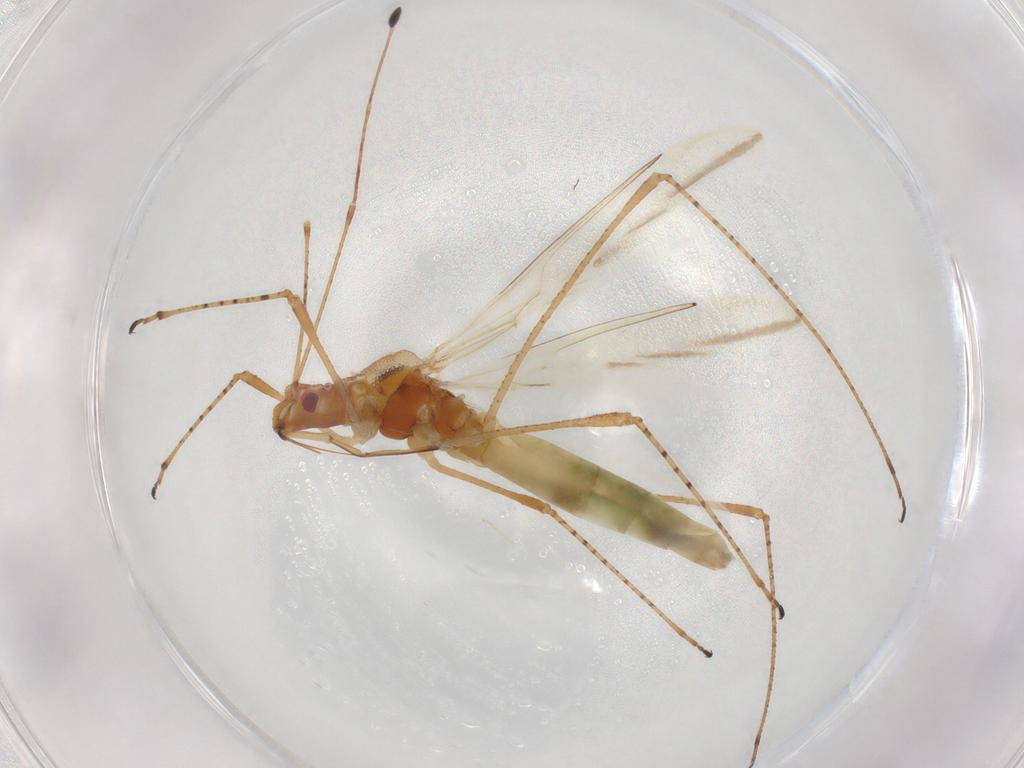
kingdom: Animalia
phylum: Arthropoda
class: Insecta
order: Hemiptera
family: Cymidae
